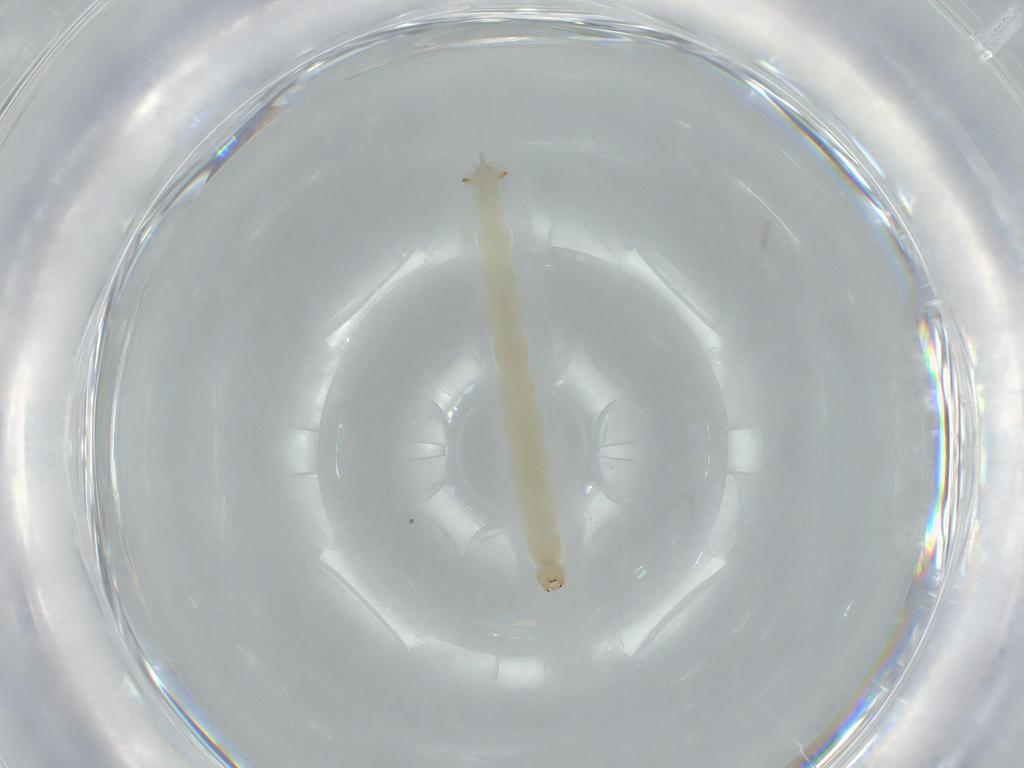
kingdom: Animalia
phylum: Arthropoda
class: Insecta
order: Diptera
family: Chironomidae
